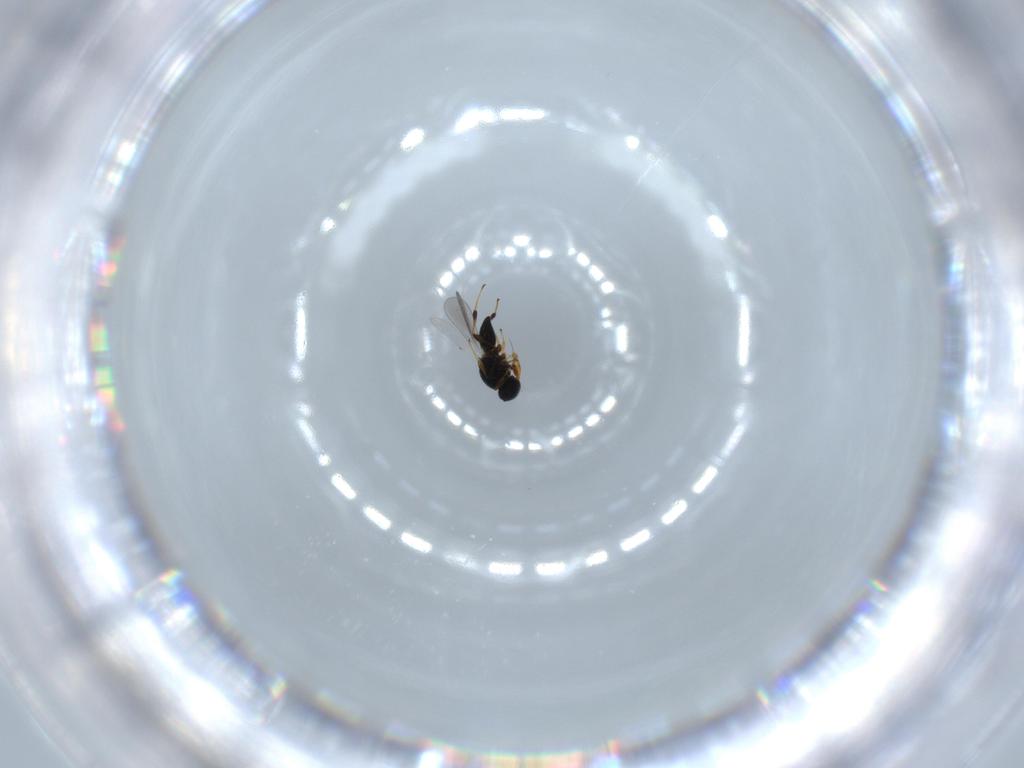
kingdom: Animalia
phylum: Arthropoda
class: Insecta
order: Hymenoptera
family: Platygastridae
